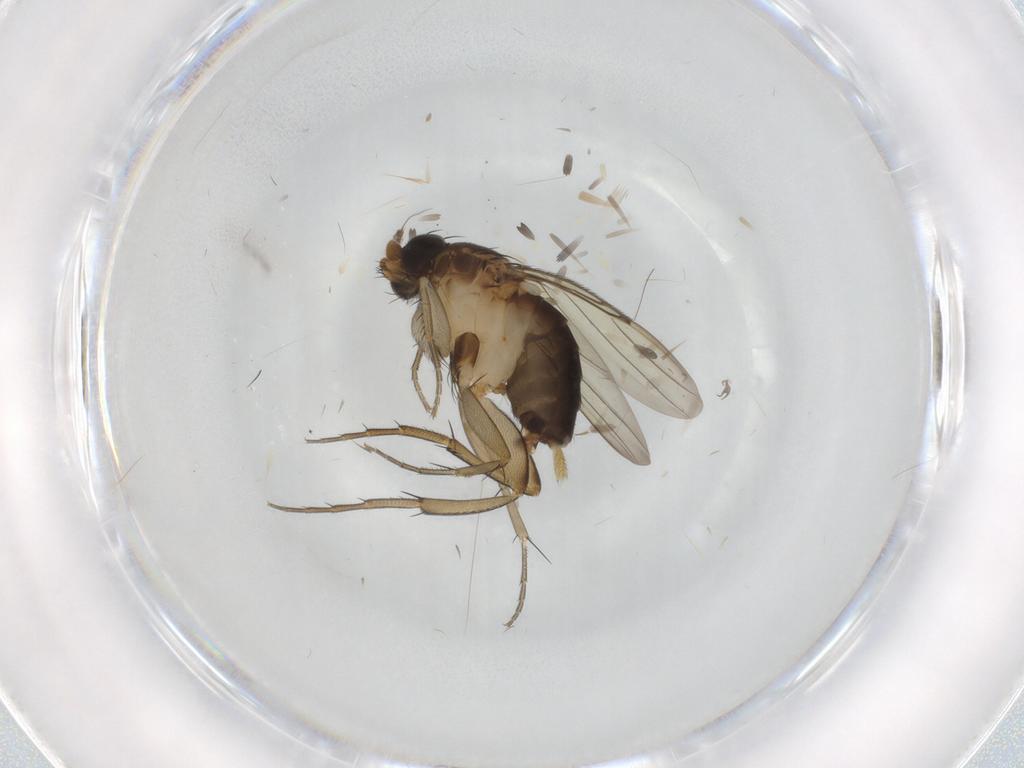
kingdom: Animalia
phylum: Arthropoda
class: Insecta
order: Diptera
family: Phoridae
